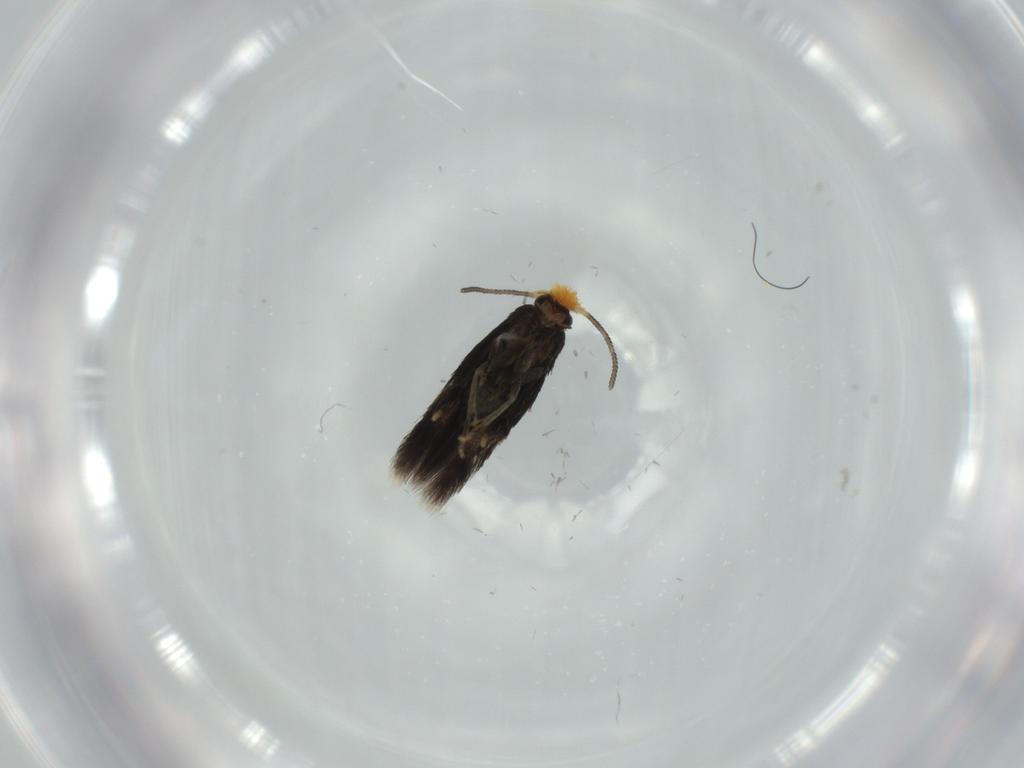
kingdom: Animalia
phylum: Arthropoda
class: Insecta
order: Lepidoptera
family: Nepticulidae
